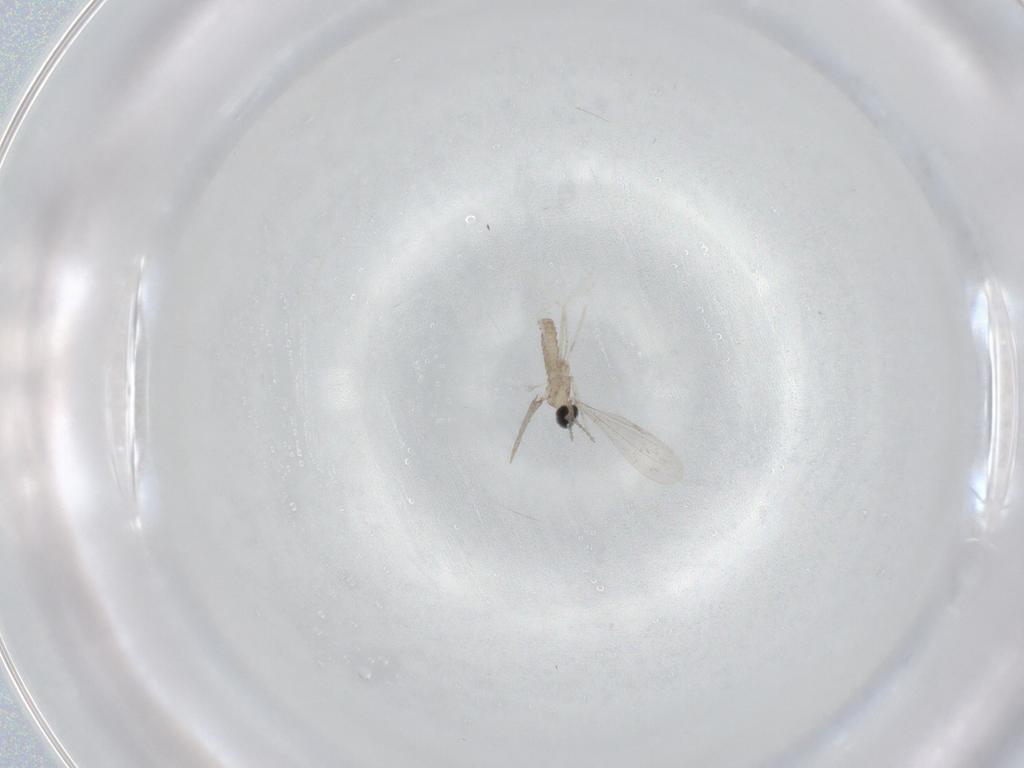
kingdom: Animalia
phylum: Arthropoda
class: Insecta
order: Diptera
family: Cecidomyiidae
